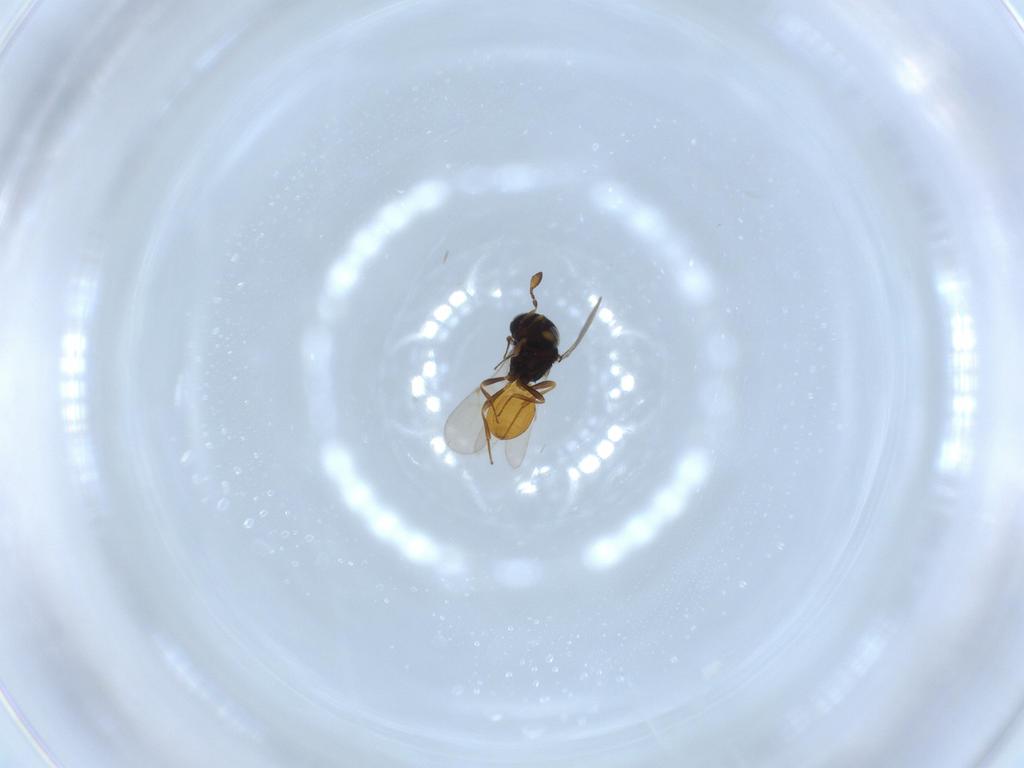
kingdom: Animalia
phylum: Arthropoda
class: Insecta
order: Hymenoptera
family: Scelionidae
